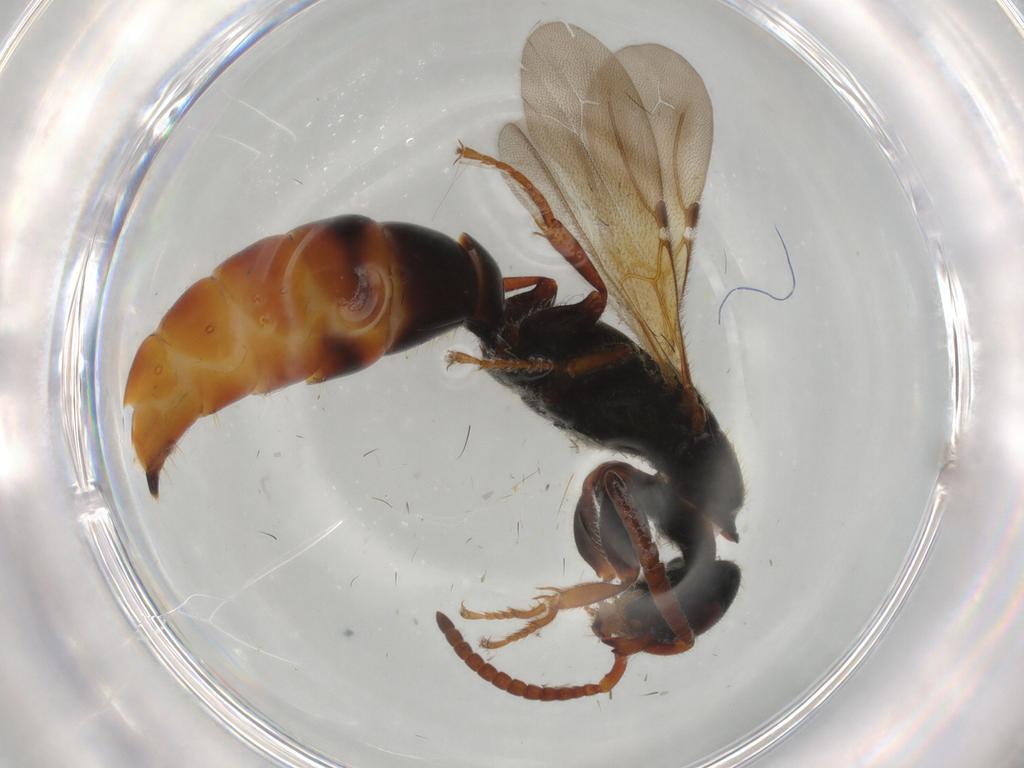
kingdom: Animalia
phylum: Arthropoda
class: Insecta
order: Hymenoptera
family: Bethylidae
